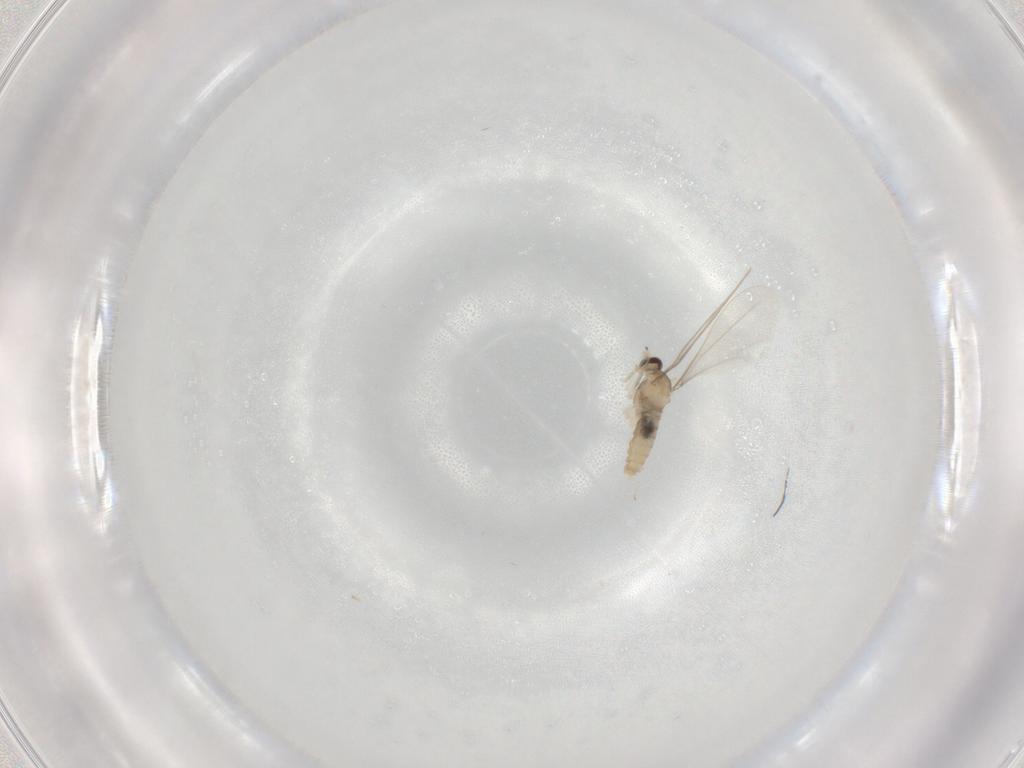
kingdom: Animalia
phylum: Arthropoda
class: Insecta
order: Diptera
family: Cecidomyiidae
